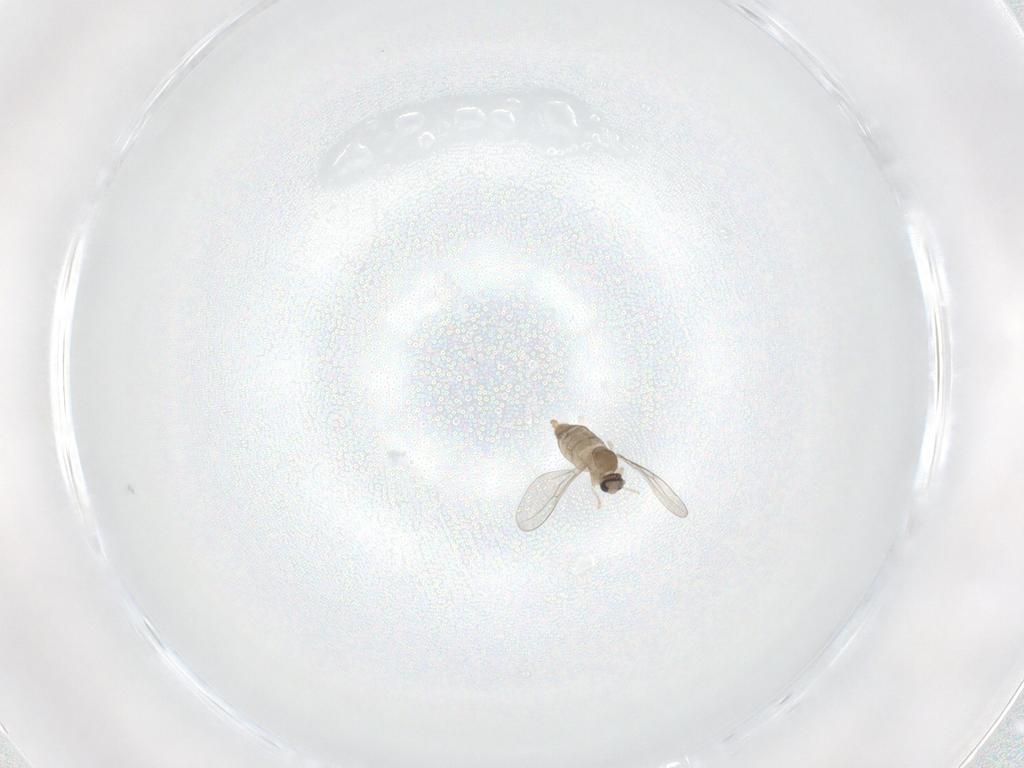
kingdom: Animalia
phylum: Arthropoda
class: Insecta
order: Diptera
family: Cecidomyiidae
